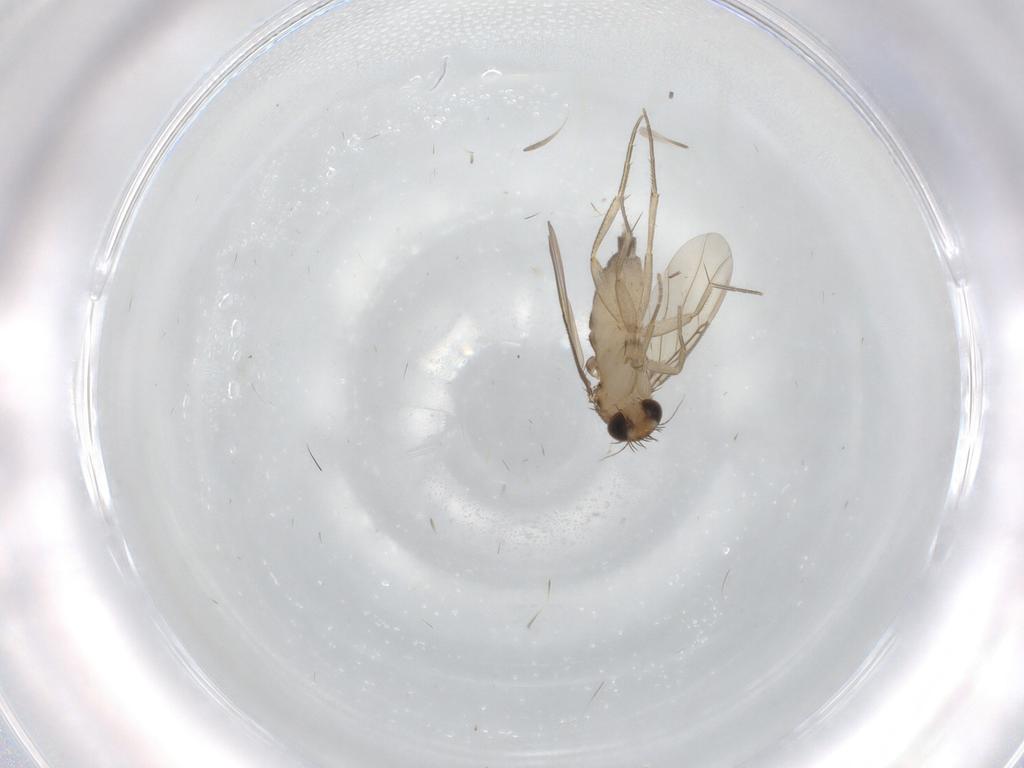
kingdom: Animalia
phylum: Arthropoda
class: Insecta
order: Diptera
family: Phoridae
